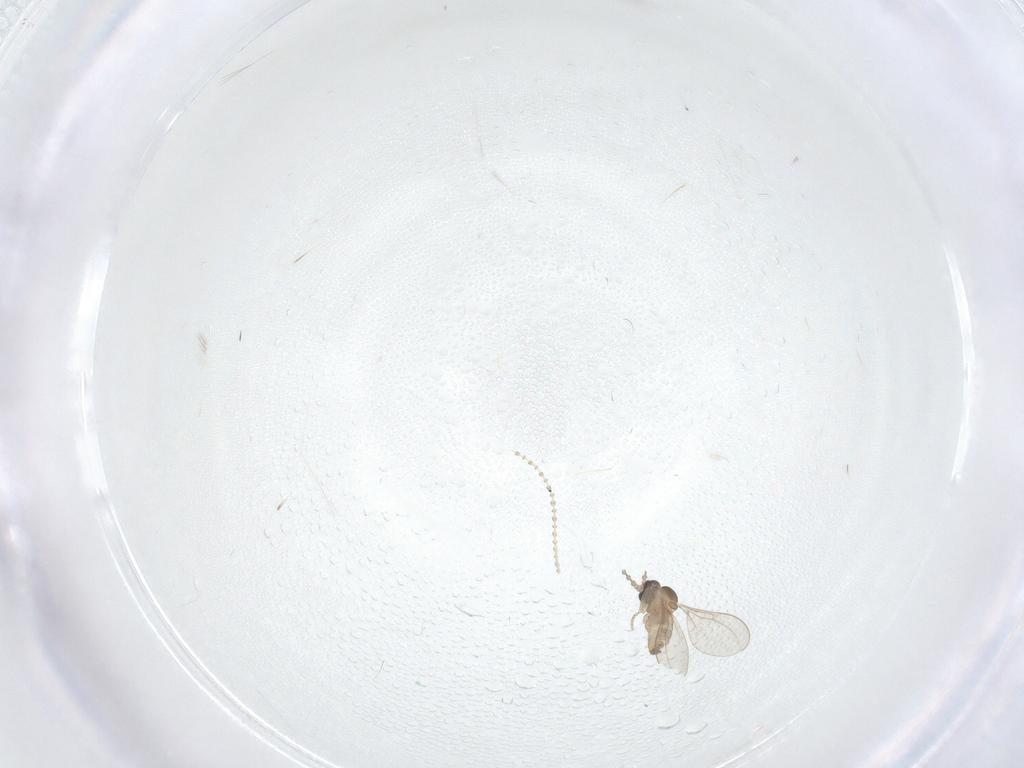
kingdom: Animalia
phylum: Arthropoda
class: Insecta
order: Diptera
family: Cecidomyiidae
